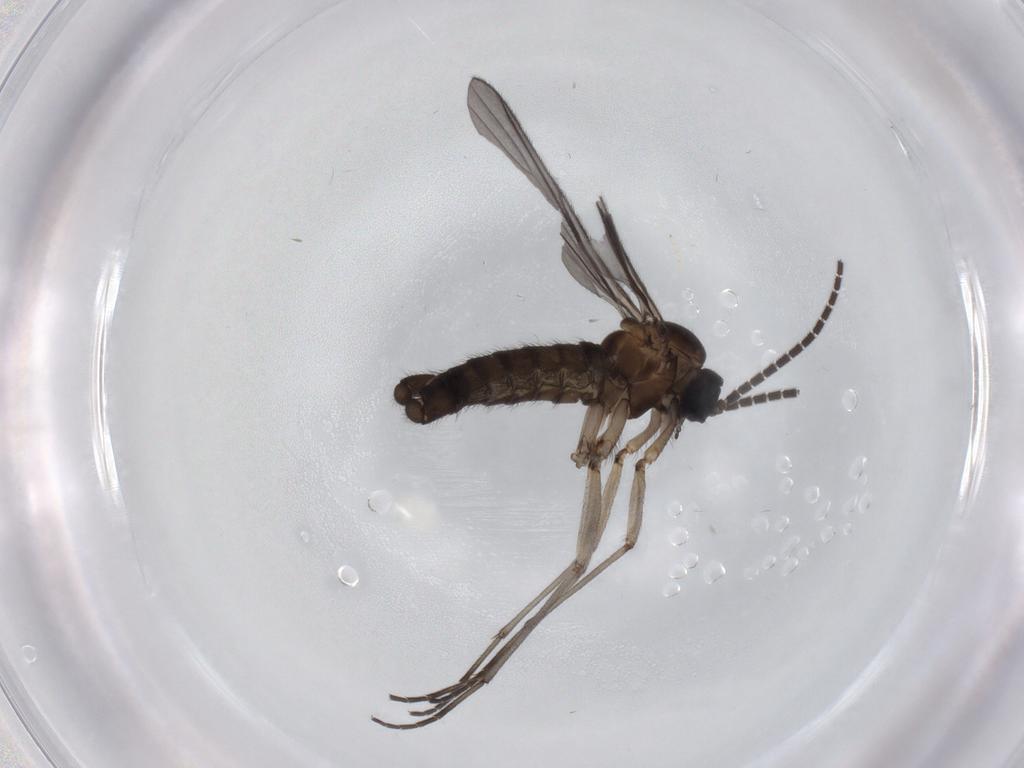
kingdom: Animalia
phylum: Arthropoda
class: Insecta
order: Diptera
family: Sciaridae
